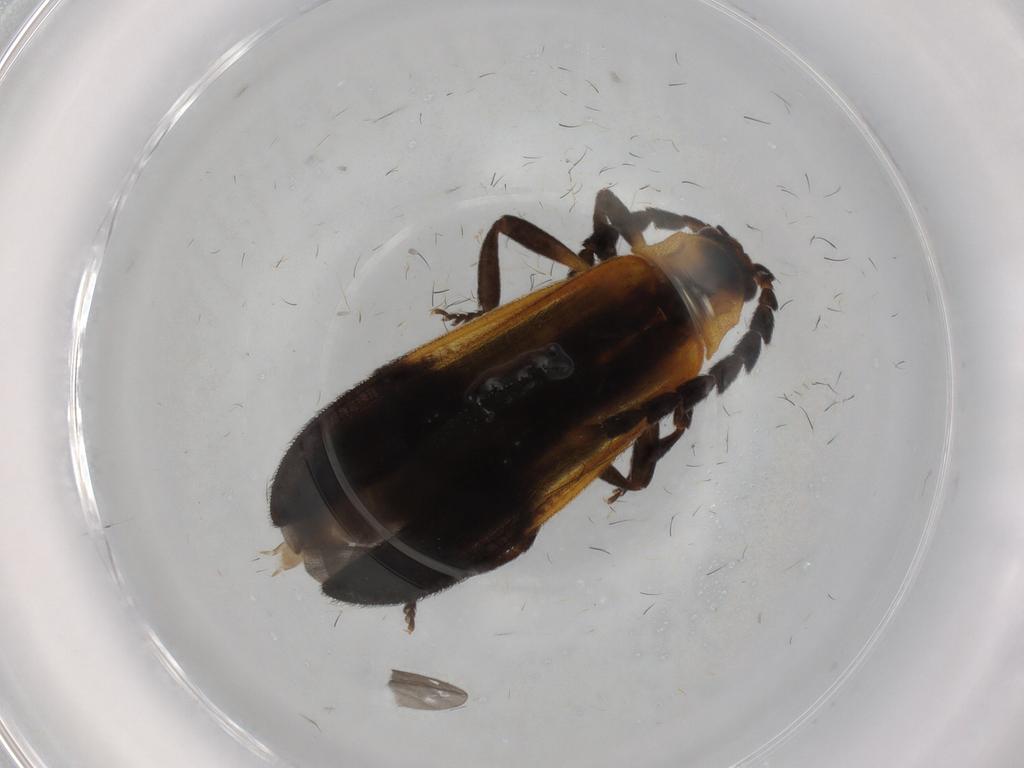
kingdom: Animalia
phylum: Arthropoda
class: Insecta
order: Coleoptera
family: Lycidae
